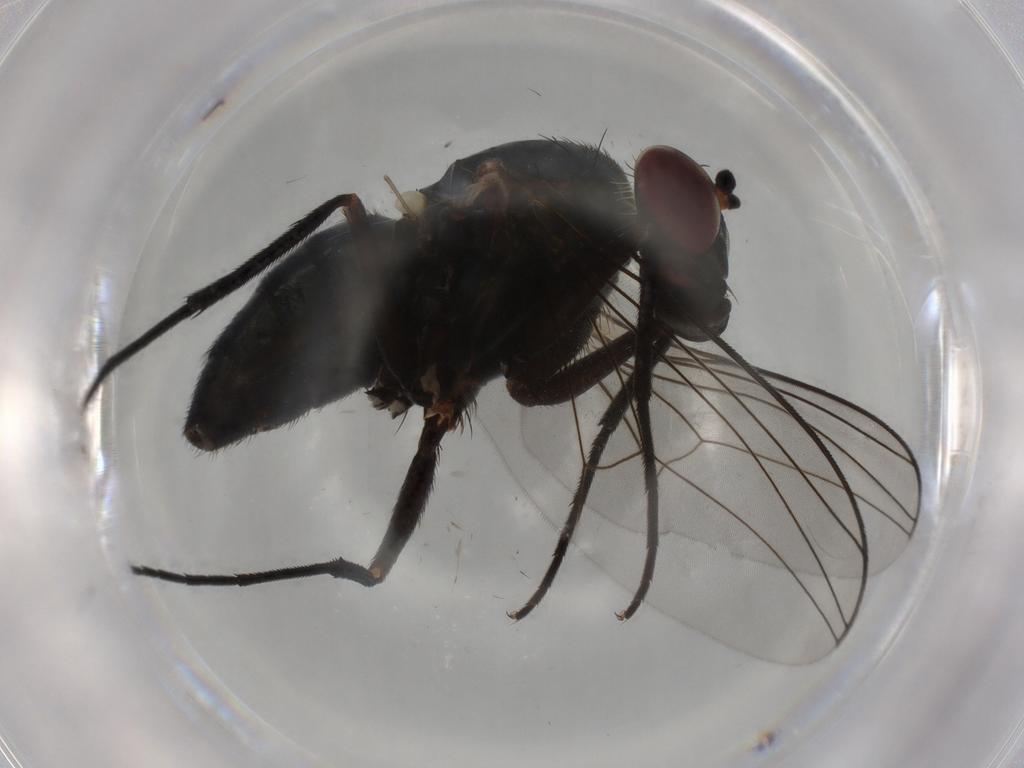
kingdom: Animalia
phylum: Arthropoda
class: Insecta
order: Diptera
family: Dolichopodidae
